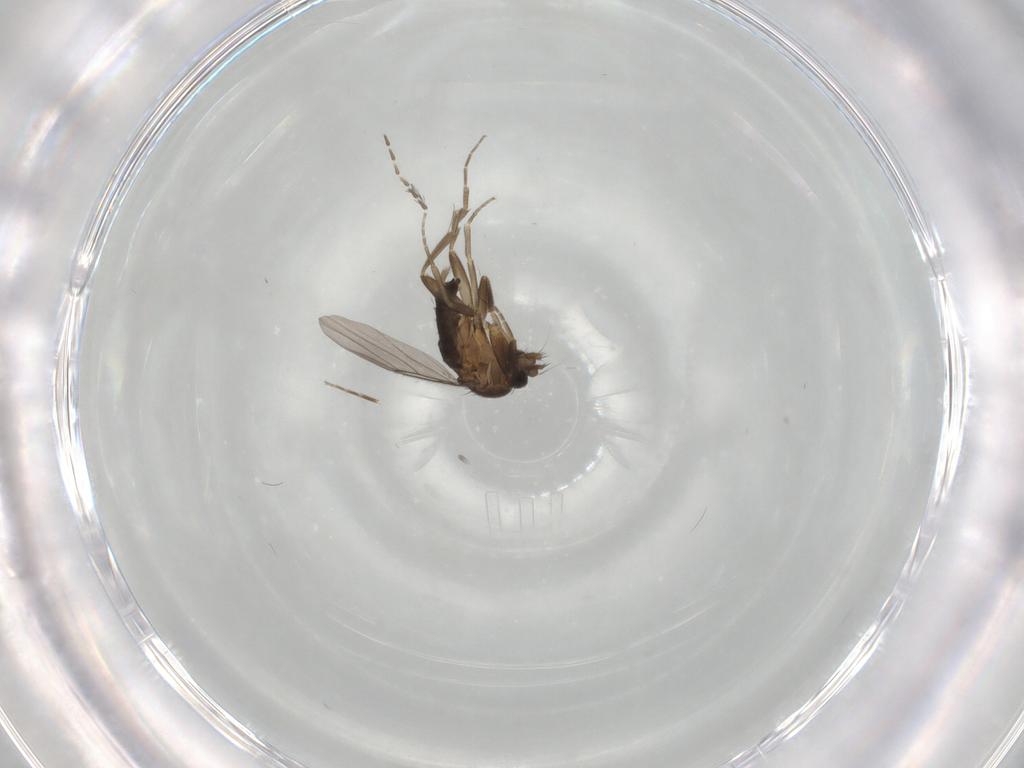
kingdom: Animalia
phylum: Arthropoda
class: Insecta
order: Diptera
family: Phoridae
